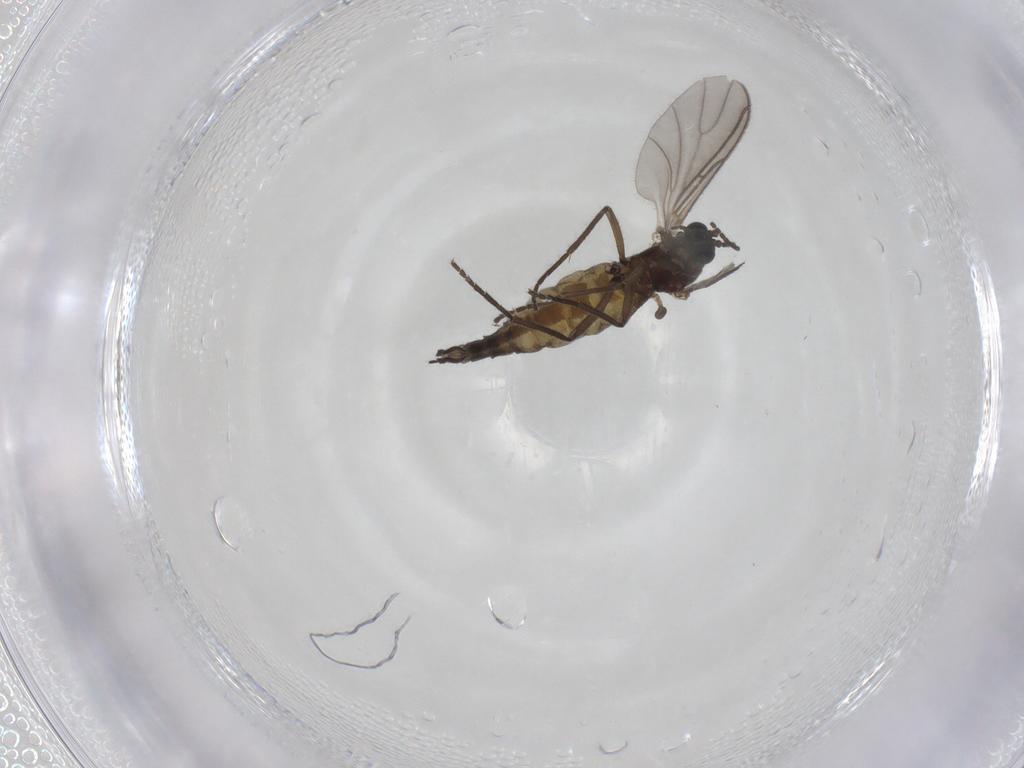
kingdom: Animalia
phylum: Arthropoda
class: Insecta
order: Diptera
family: Sciaridae
